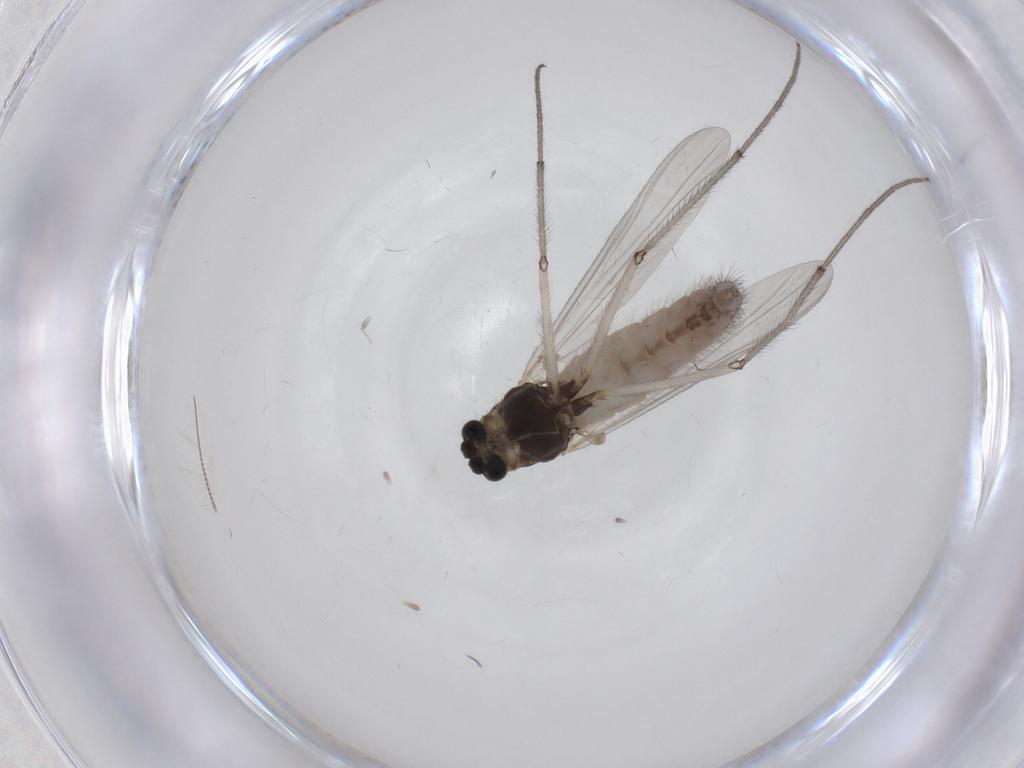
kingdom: Animalia
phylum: Arthropoda
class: Insecta
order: Diptera
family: Chironomidae
